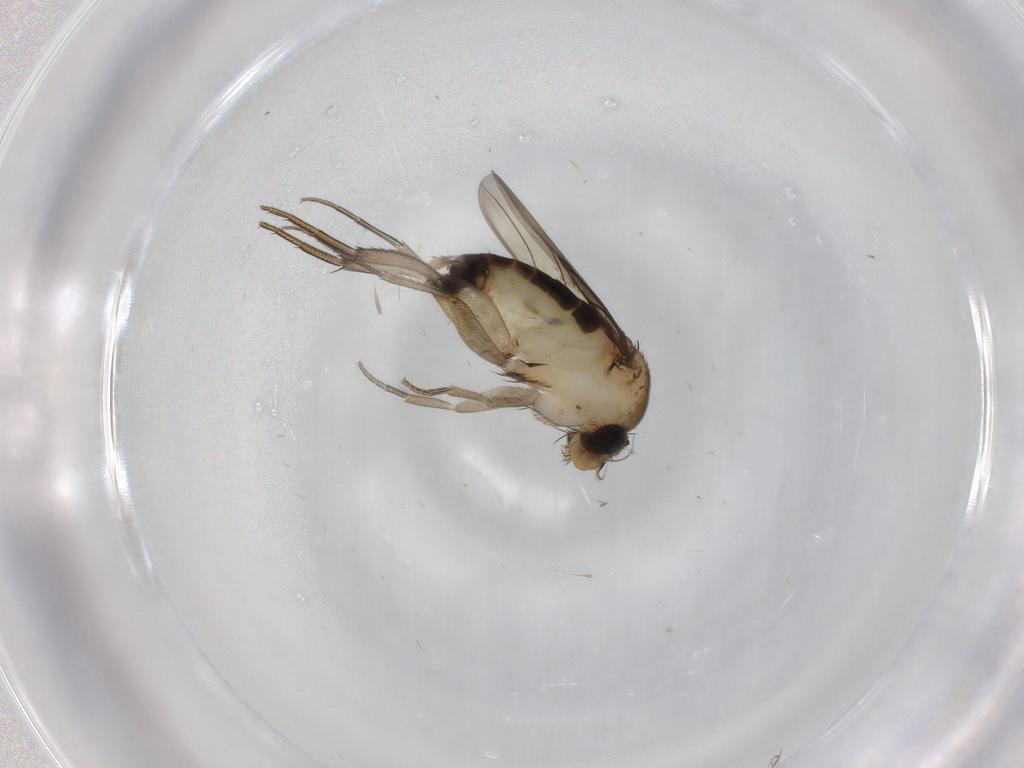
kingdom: Animalia
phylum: Arthropoda
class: Insecta
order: Diptera
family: Phoridae
